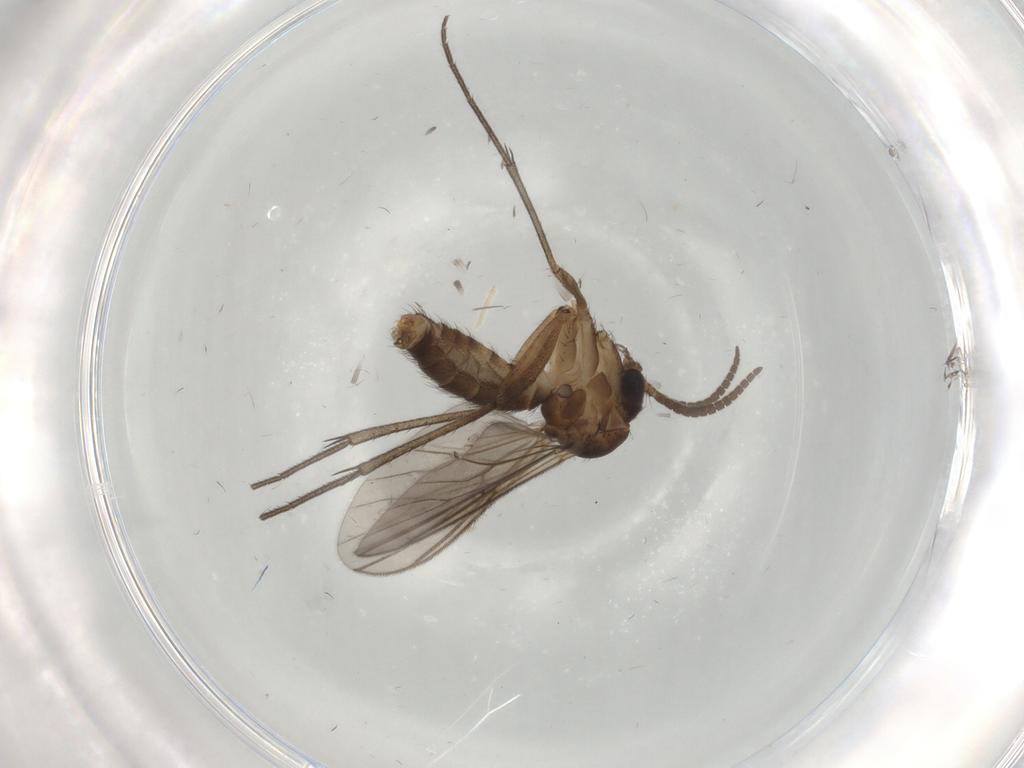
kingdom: Animalia
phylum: Arthropoda
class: Insecta
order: Diptera
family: Phoridae
